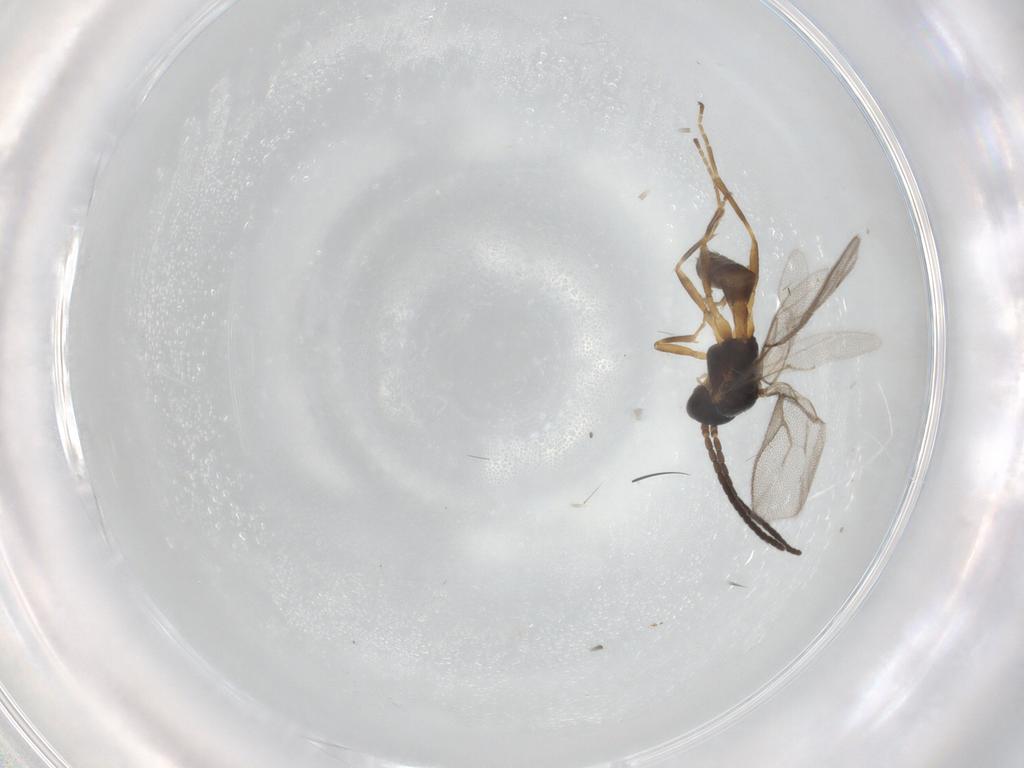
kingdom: Animalia
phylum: Arthropoda
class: Insecta
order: Hymenoptera
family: Braconidae
